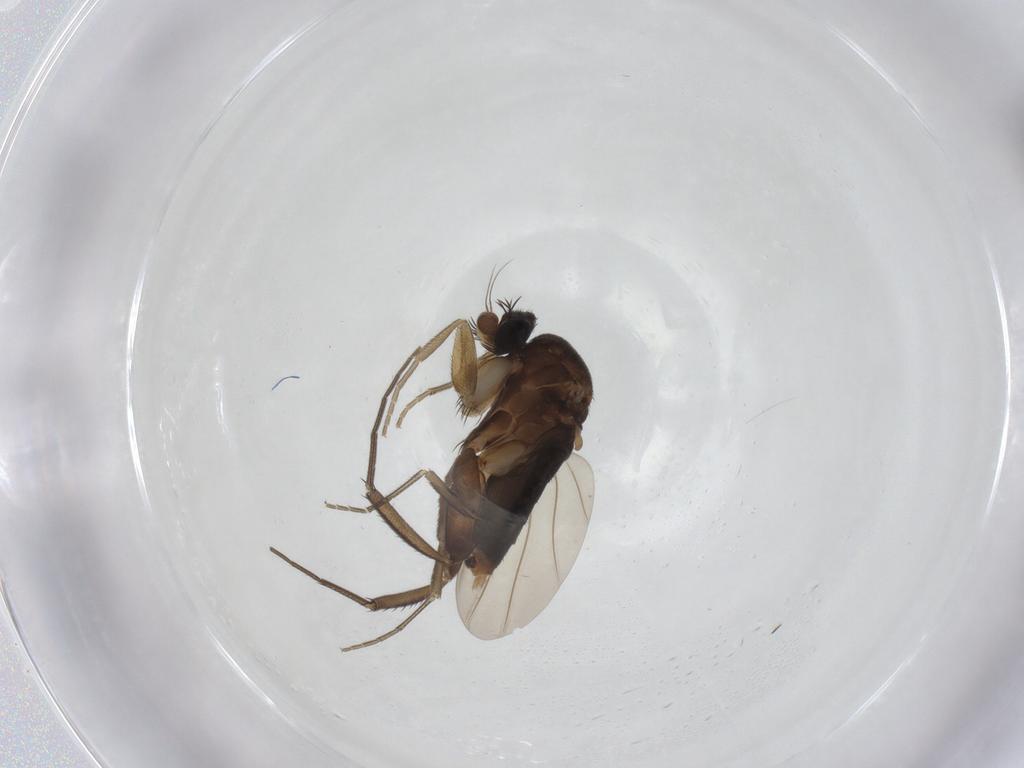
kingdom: Animalia
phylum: Arthropoda
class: Insecta
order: Diptera
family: Phoridae
